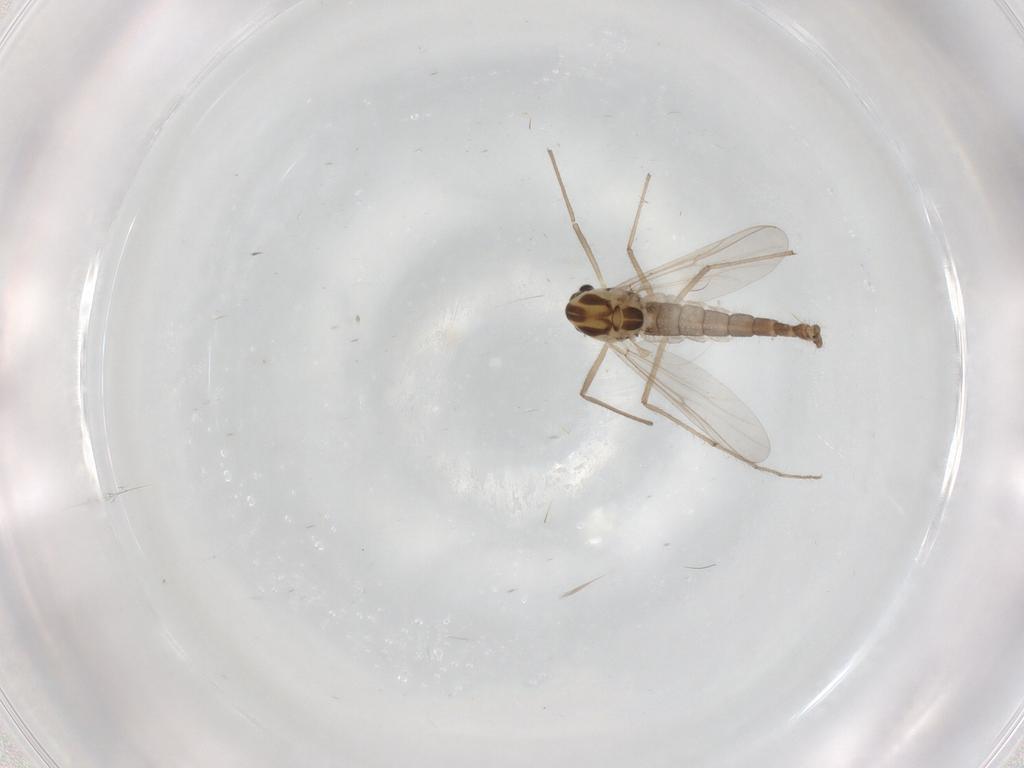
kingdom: Animalia
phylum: Arthropoda
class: Insecta
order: Diptera
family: Chironomidae
